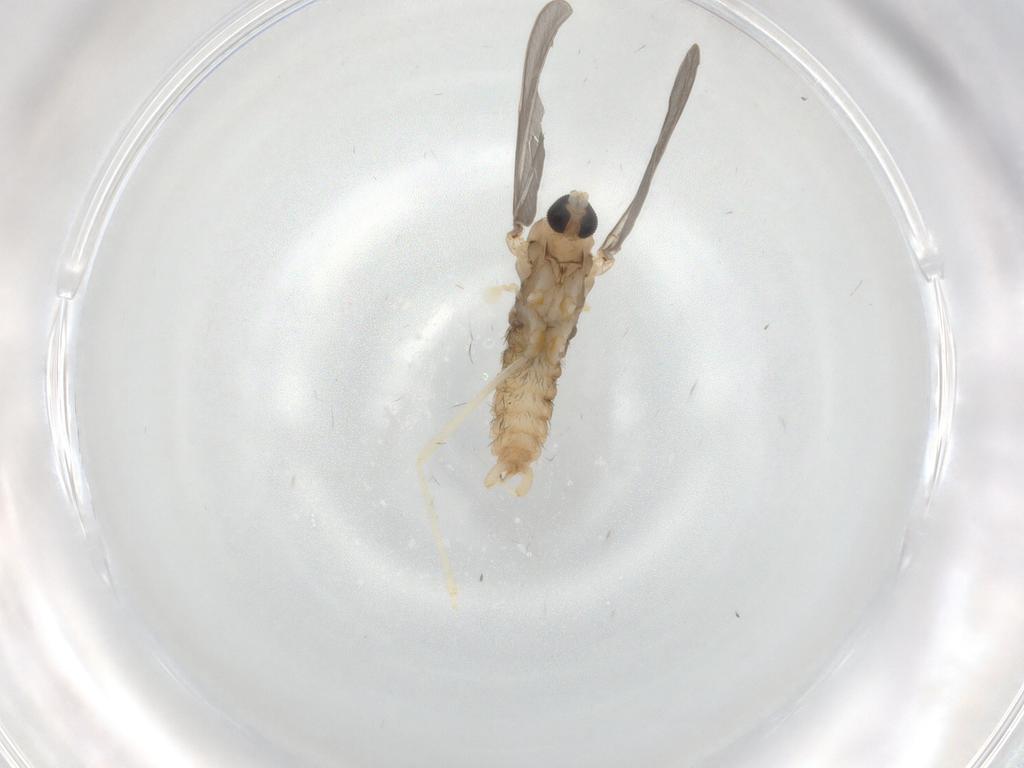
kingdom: Animalia
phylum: Arthropoda
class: Insecta
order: Diptera
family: Cecidomyiidae
